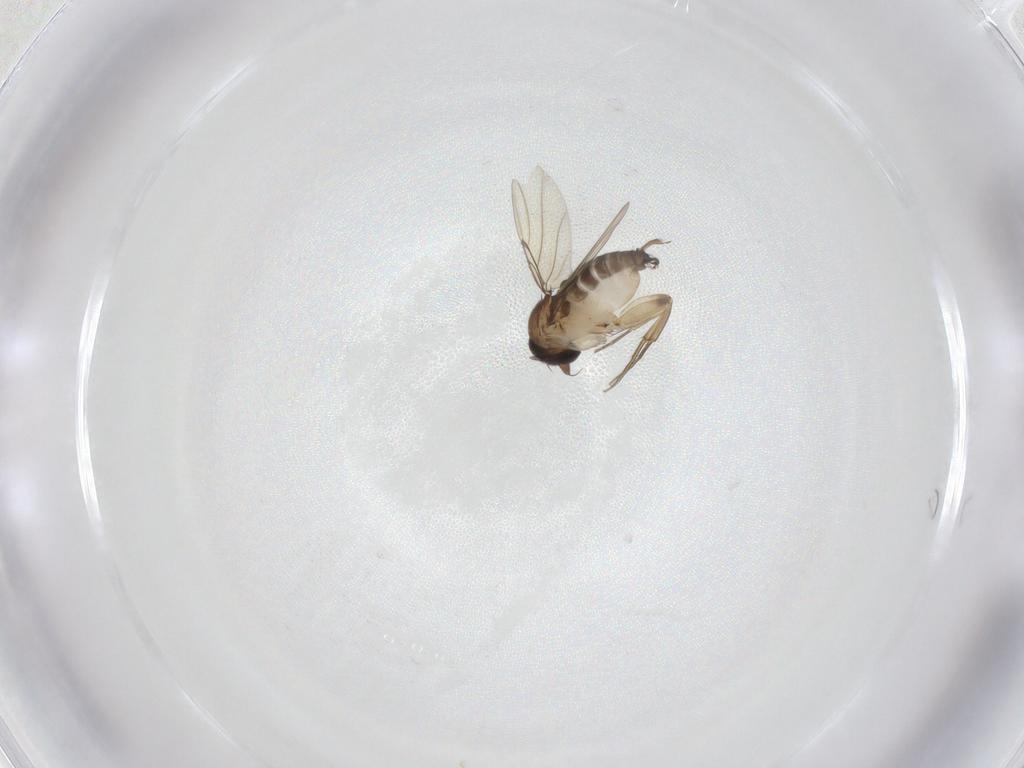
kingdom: Animalia
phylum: Arthropoda
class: Insecta
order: Diptera
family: Phoridae
